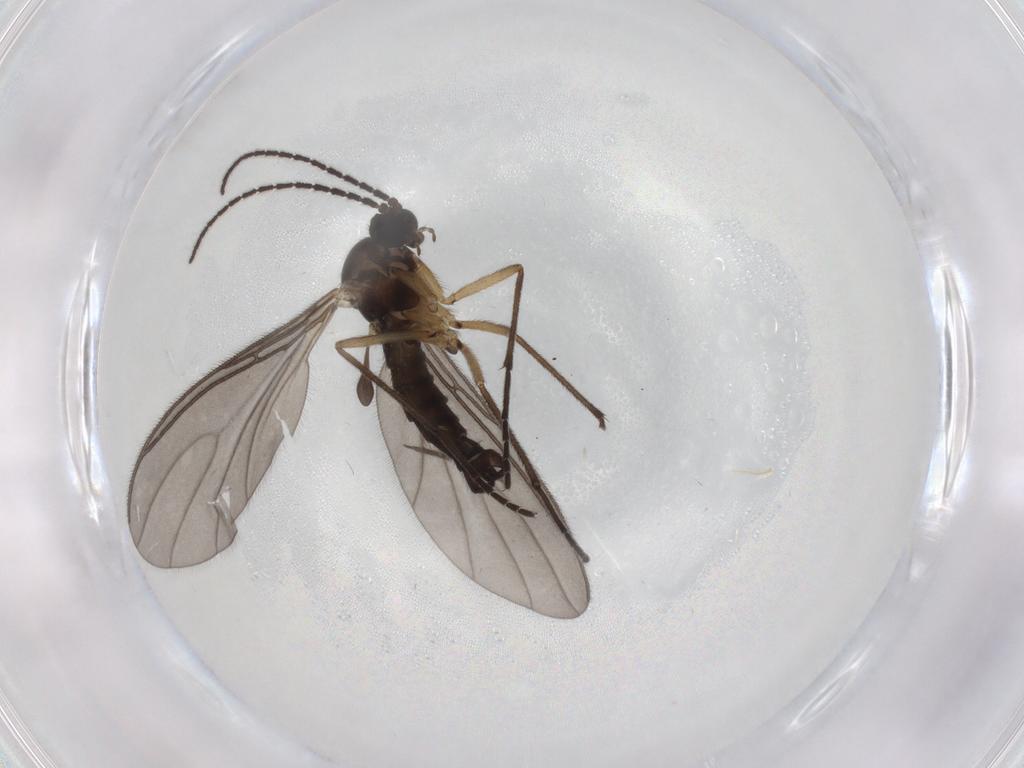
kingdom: Animalia
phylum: Arthropoda
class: Insecta
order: Diptera
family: Sciaridae
